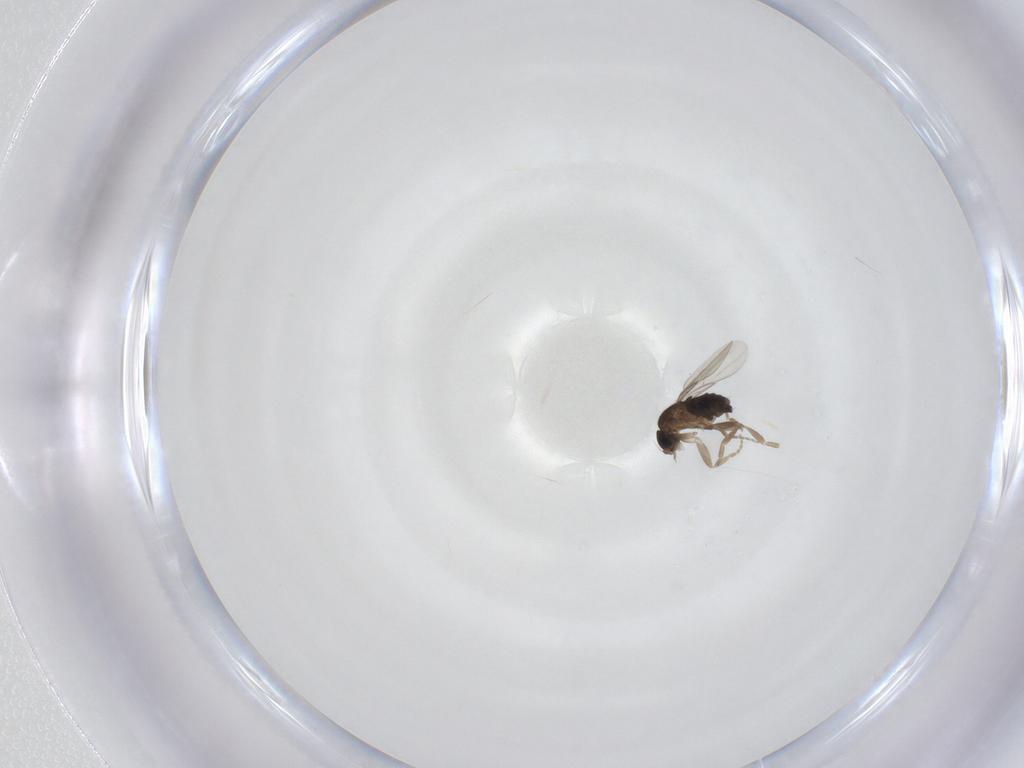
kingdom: Animalia
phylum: Arthropoda
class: Insecta
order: Diptera
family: Phoridae
